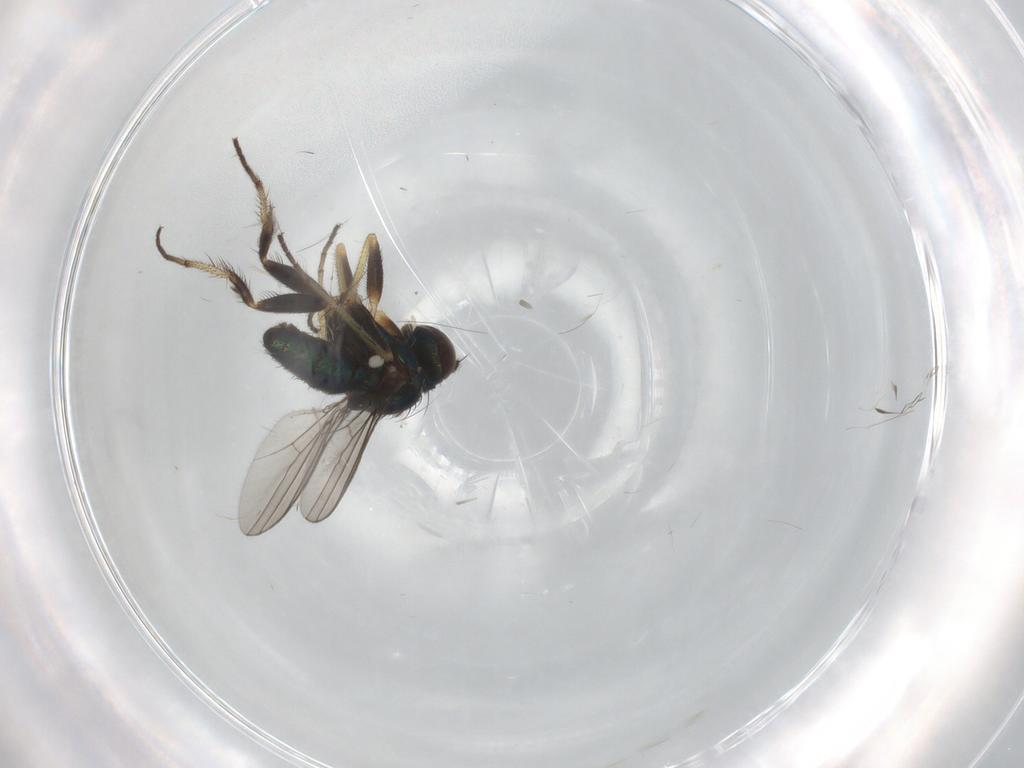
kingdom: Animalia
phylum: Arthropoda
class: Insecta
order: Diptera
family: Dolichopodidae
